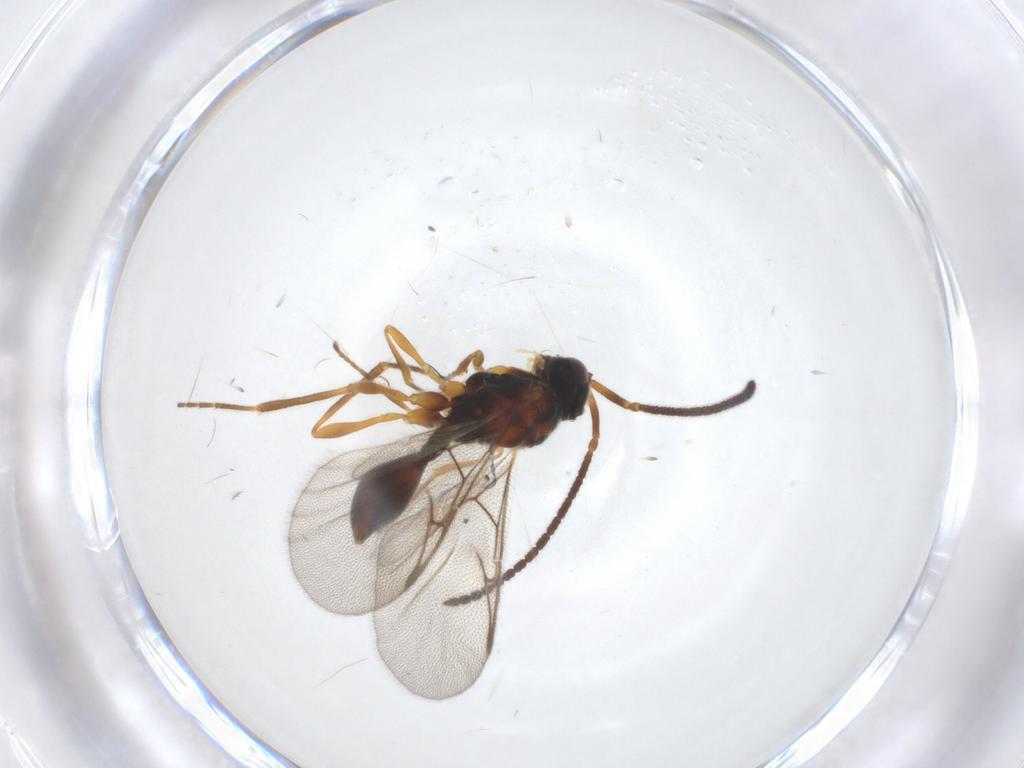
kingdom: Animalia
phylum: Arthropoda
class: Insecta
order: Hymenoptera
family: Diapriidae
